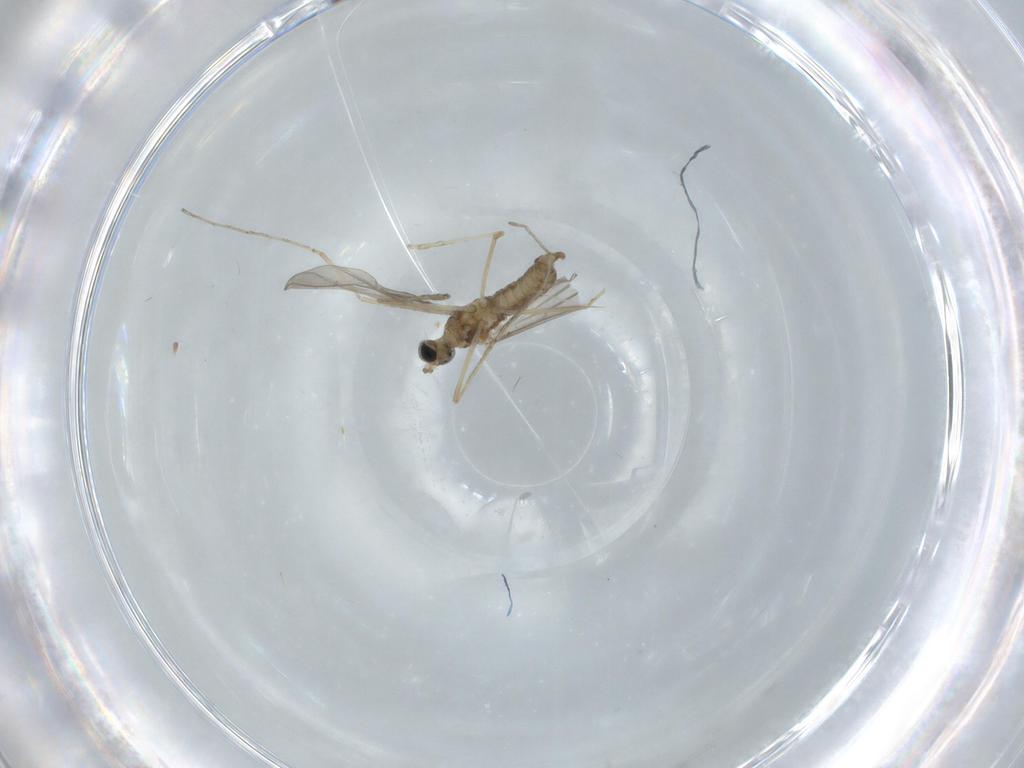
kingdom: Animalia
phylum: Arthropoda
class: Insecta
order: Diptera
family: Cecidomyiidae
